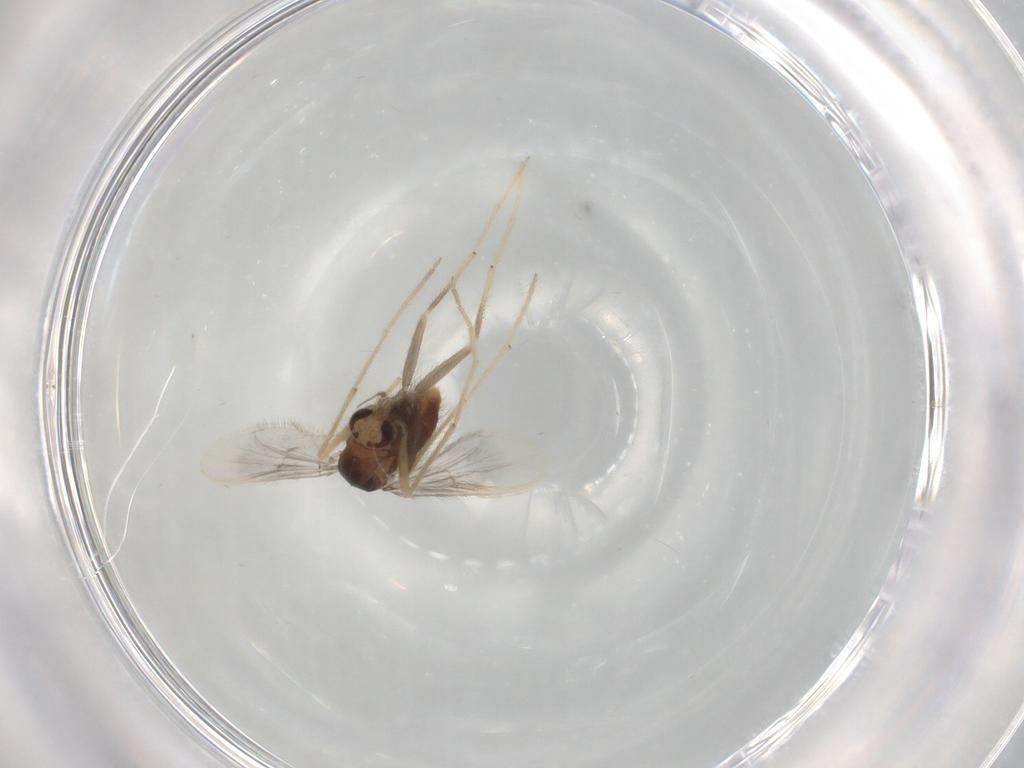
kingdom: Animalia
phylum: Arthropoda
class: Insecta
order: Diptera
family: Chironomidae
